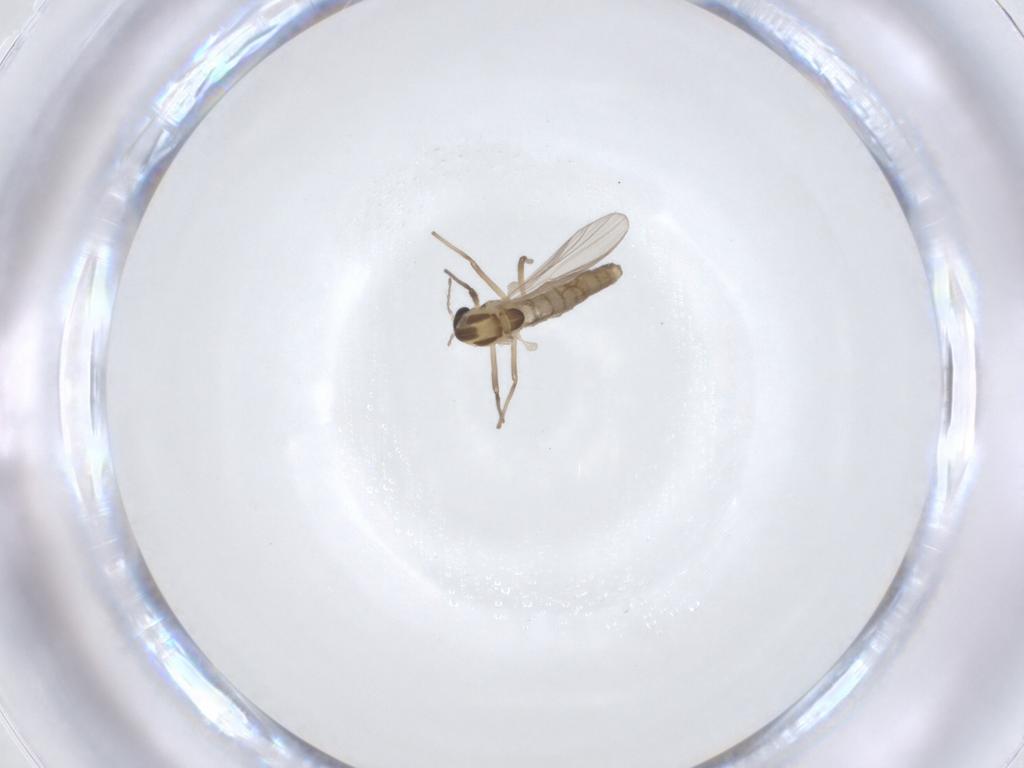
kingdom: Animalia
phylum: Arthropoda
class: Insecta
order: Diptera
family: Chironomidae
